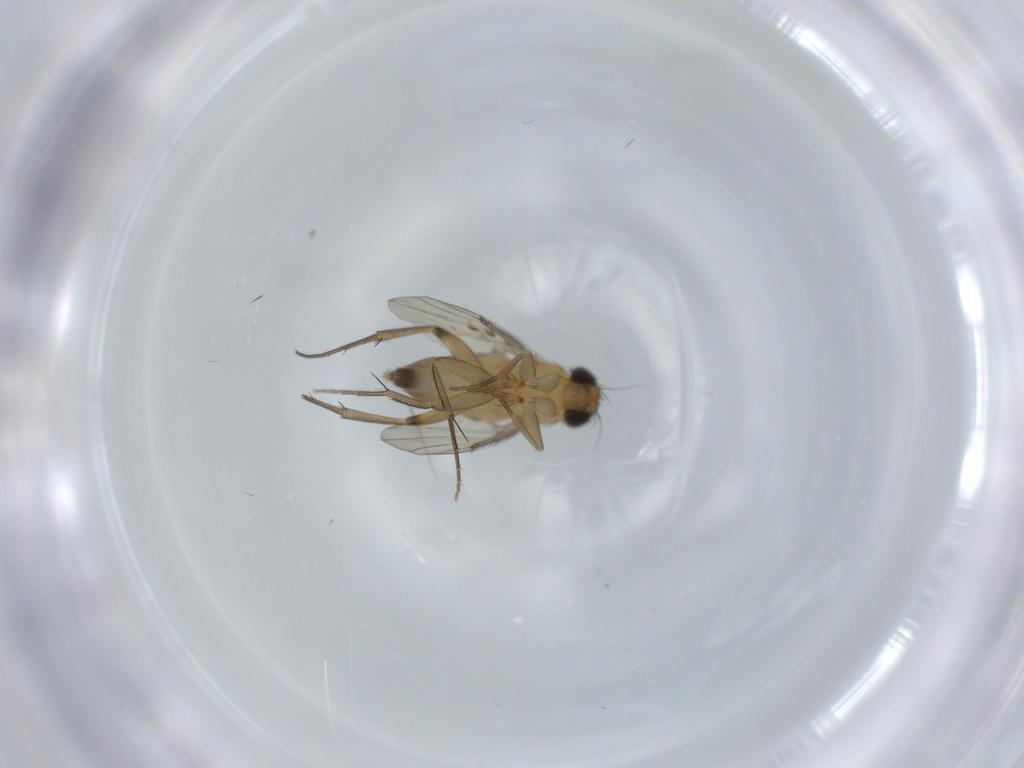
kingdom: Animalia
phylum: Arthropoda
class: Insecta
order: Diptera
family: Phoridae
